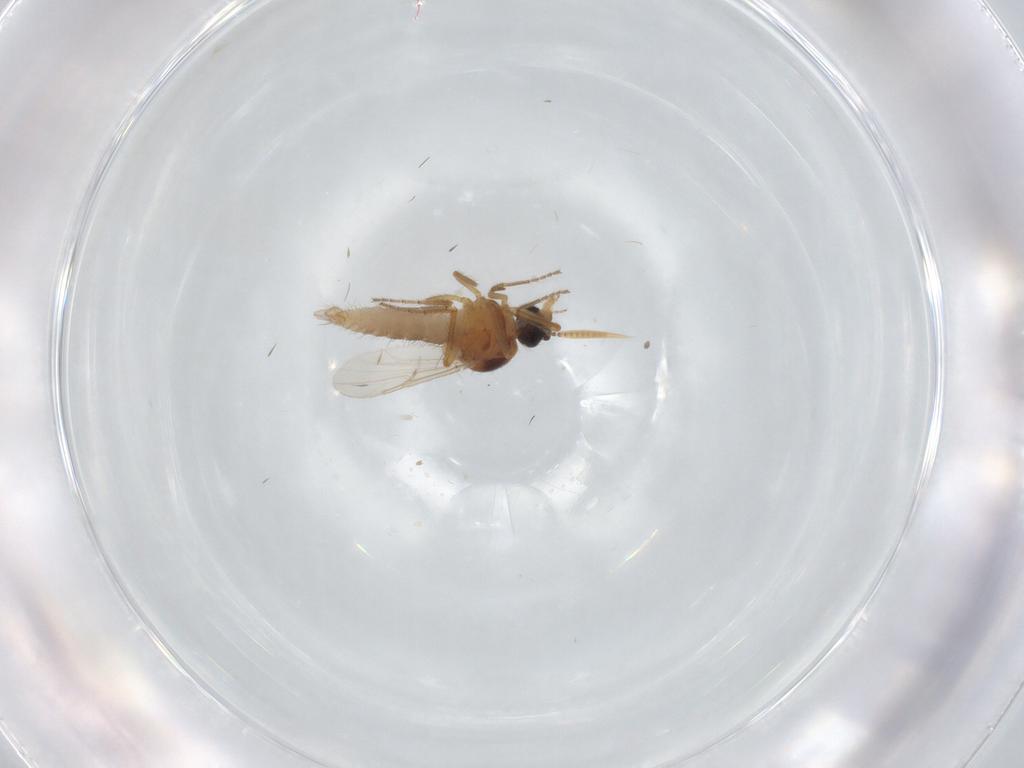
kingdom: Animalia
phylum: Arthropoda
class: Insecta
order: Diptera
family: Ceratopogonidae
